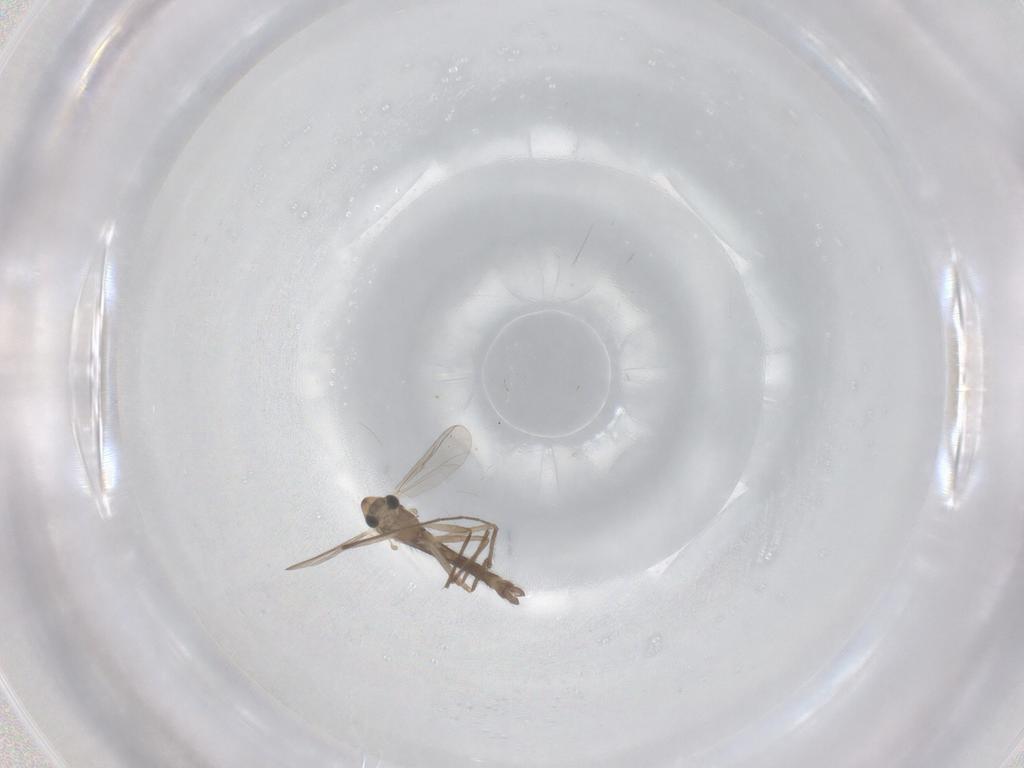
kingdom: Animalia
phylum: Arthropoda
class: Insecta
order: Diptera
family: Chironomidae
